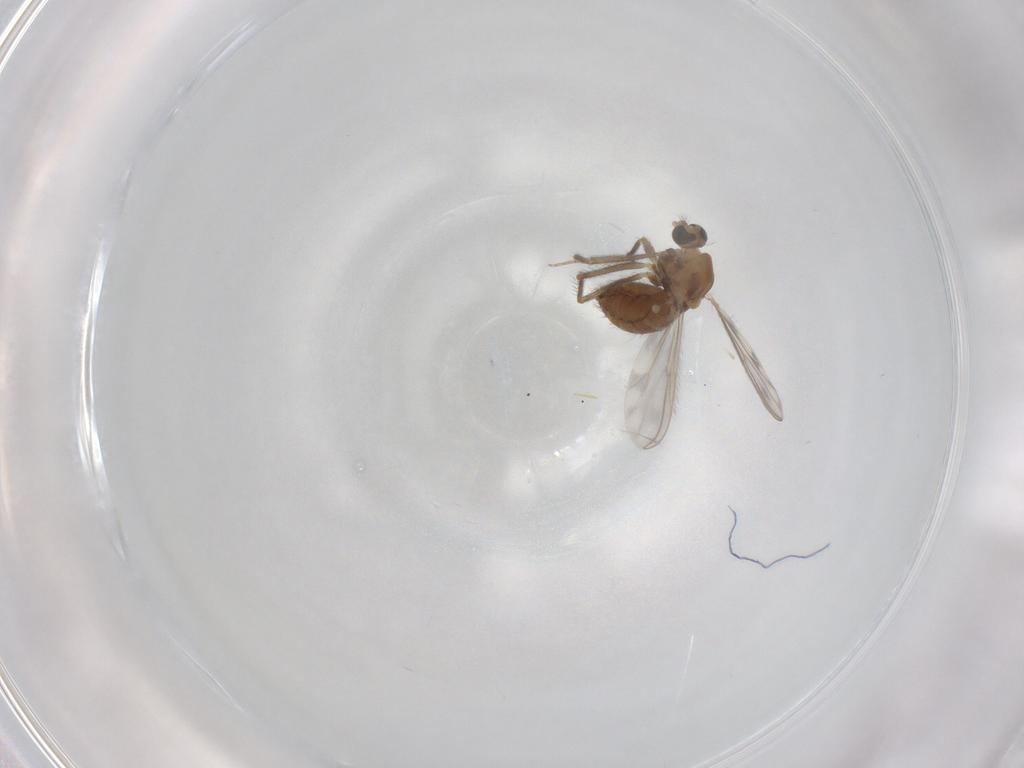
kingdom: Animalia
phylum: Arthropoda
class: Insecta
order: Diptera
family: Chironomidae
